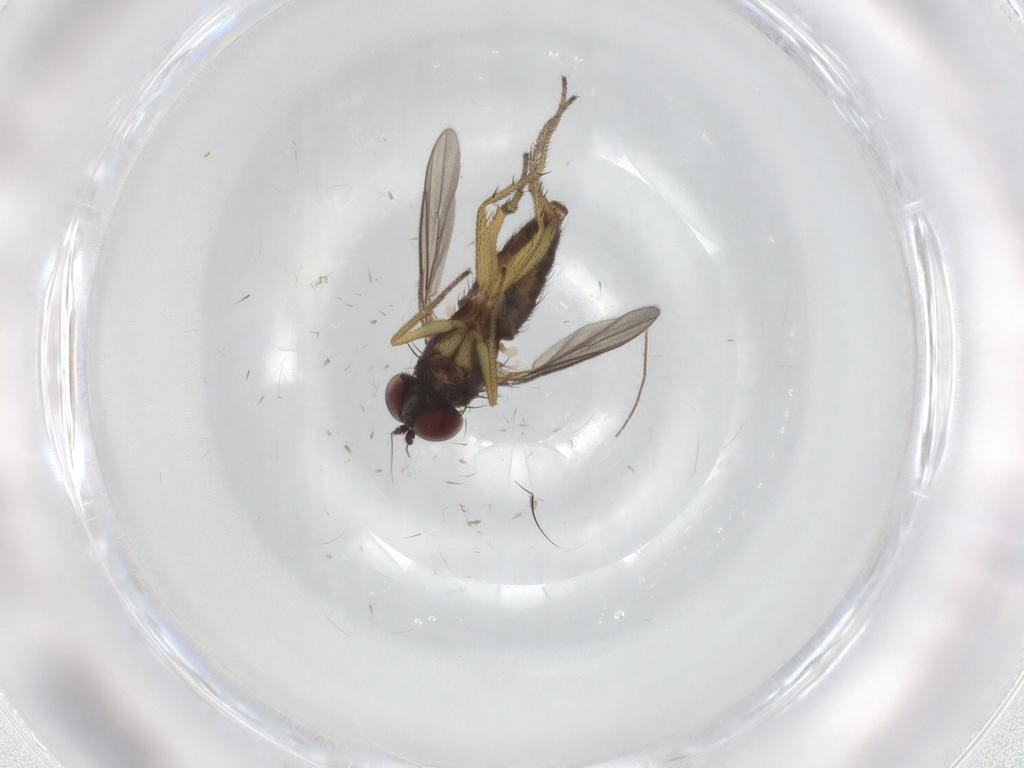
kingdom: Animalia
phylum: Arthropoda
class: Insecta
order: Diptera
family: Dolichopodidae
